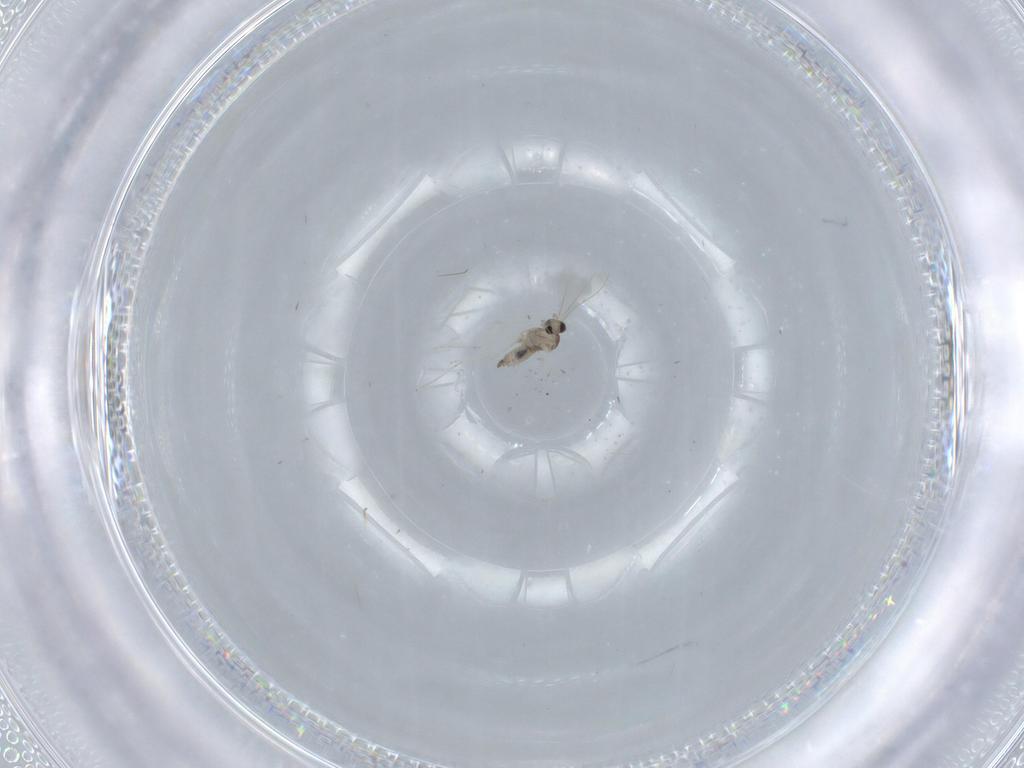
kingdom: Animalia
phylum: Arthropoda
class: Insecta
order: Diptera
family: Cecidomyiidae
